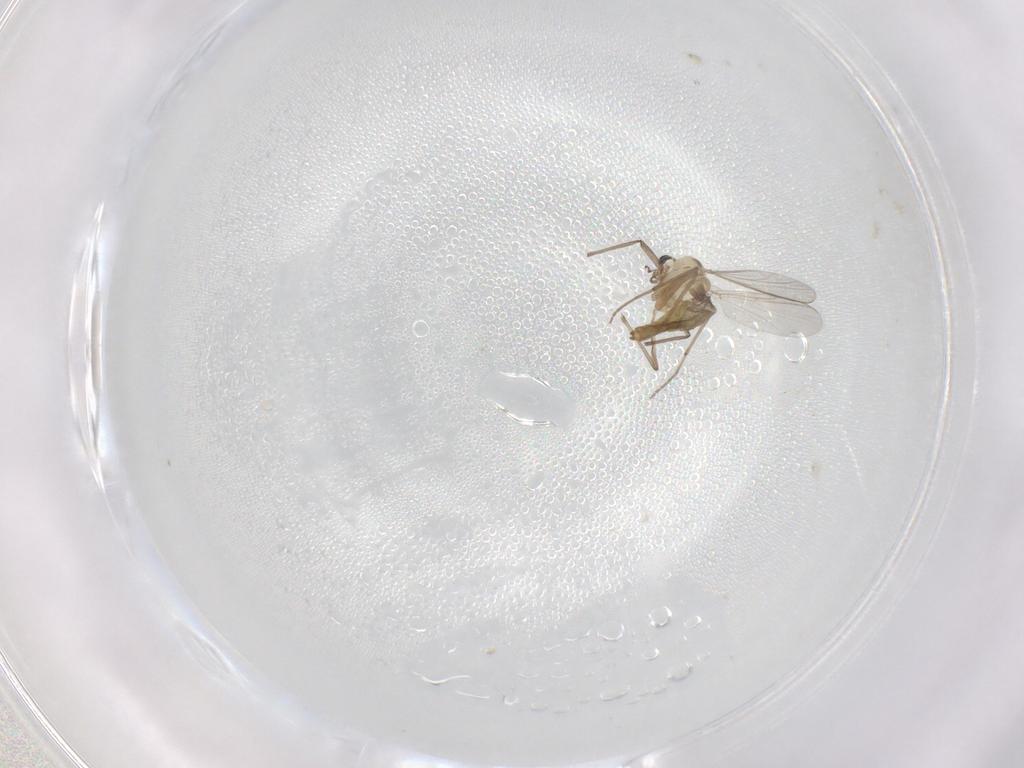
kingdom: Animalia
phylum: Arthropoda
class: Insecta
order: Diptera
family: Chironomidae
